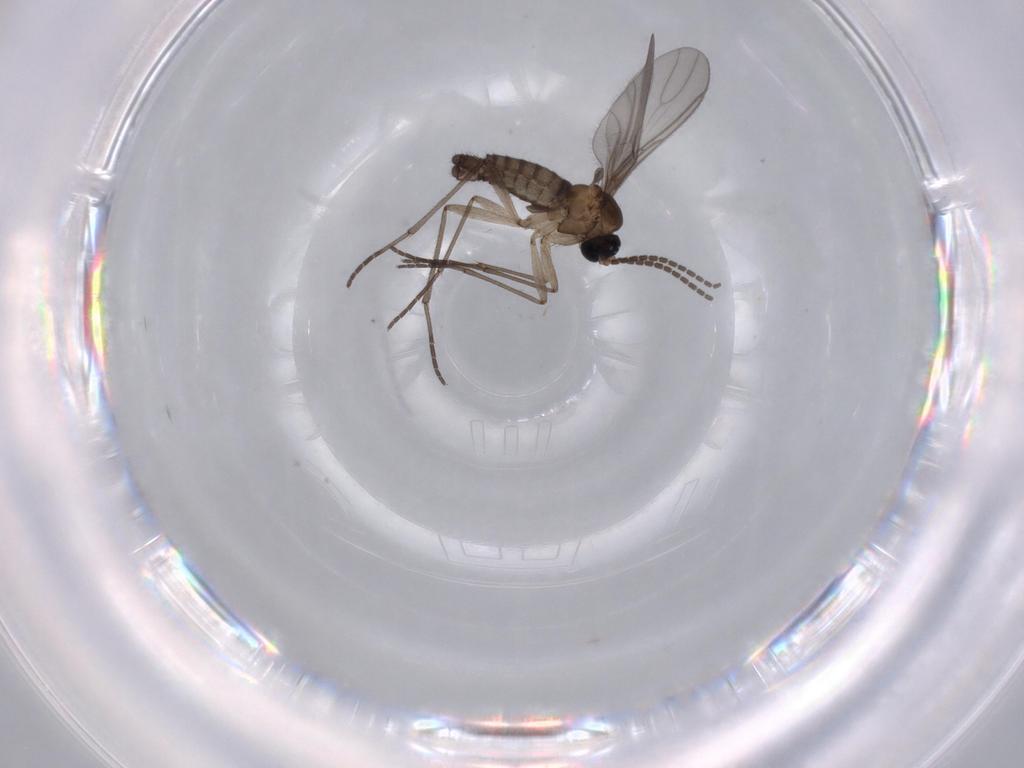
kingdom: Animalia
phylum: Arthropoda
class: Insecta
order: Diptera
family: Sciaridae
